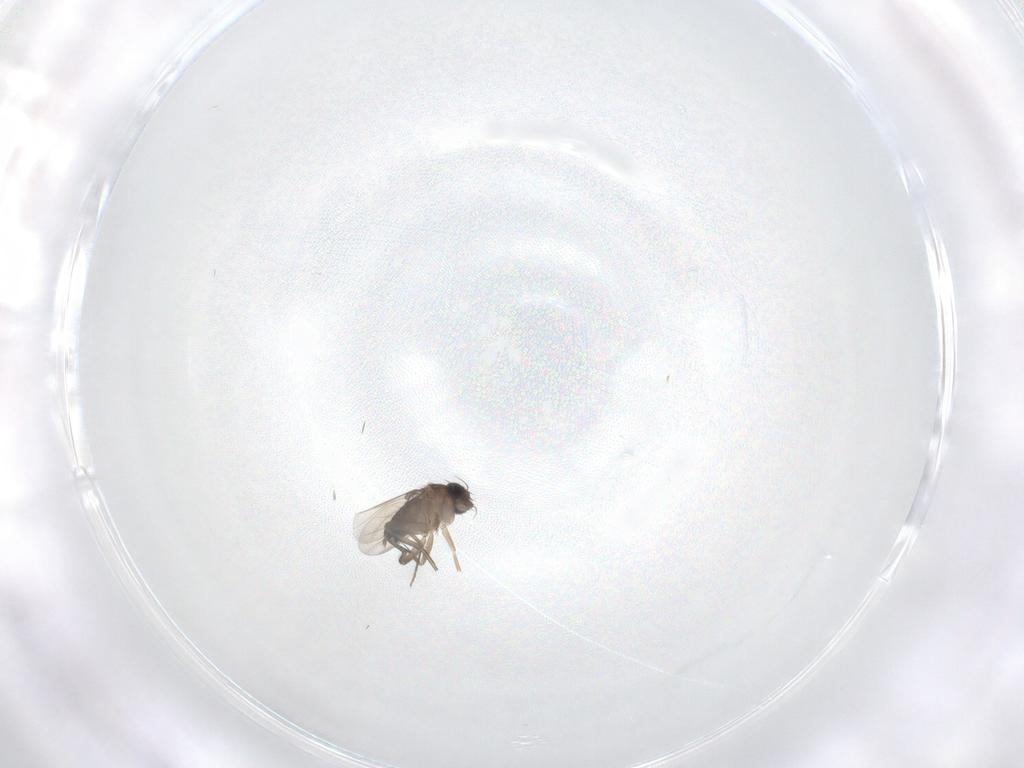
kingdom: Animalia
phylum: Arthropoda
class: Insecta
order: Diptera
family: Phoridae
